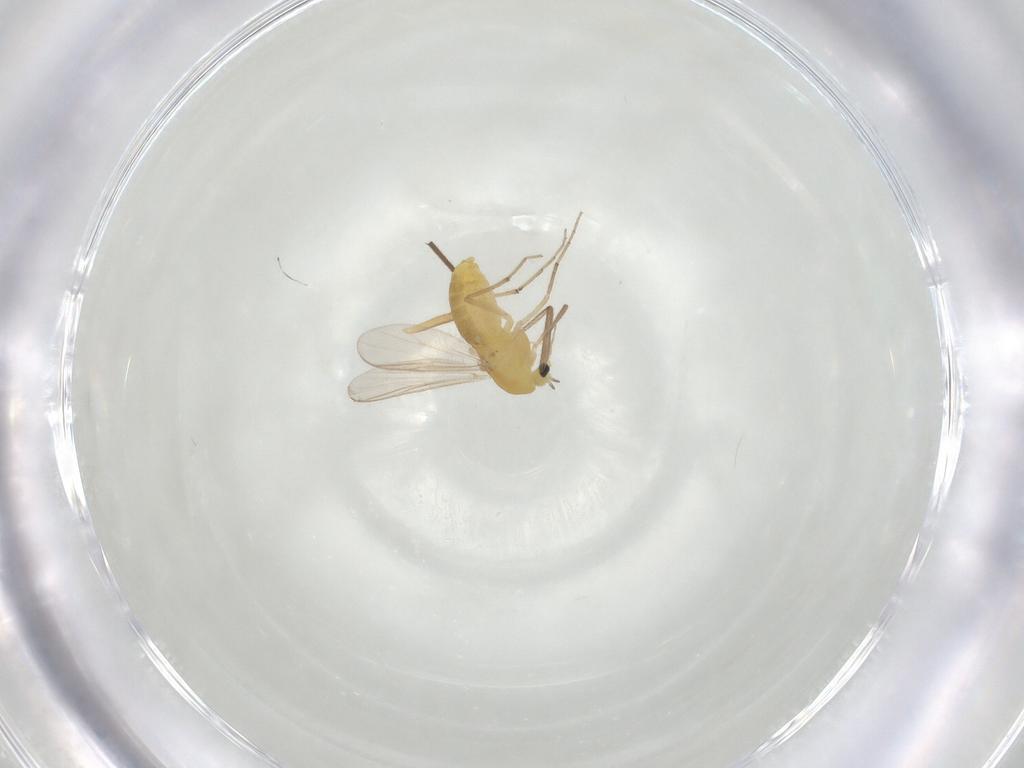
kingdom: Animalia
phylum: Arthropoda
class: Insecta
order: Diptera
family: Chironomidae
